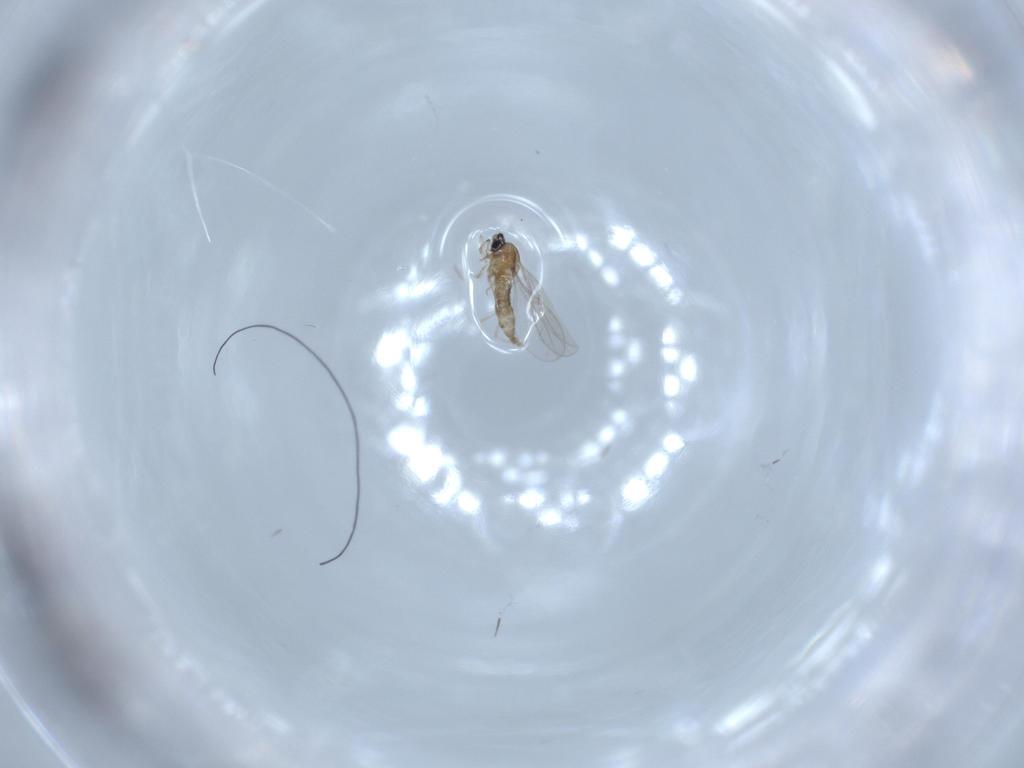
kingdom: Animalia
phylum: Arthropoda
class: Insecta
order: Diptera
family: Cecidomyiidae
